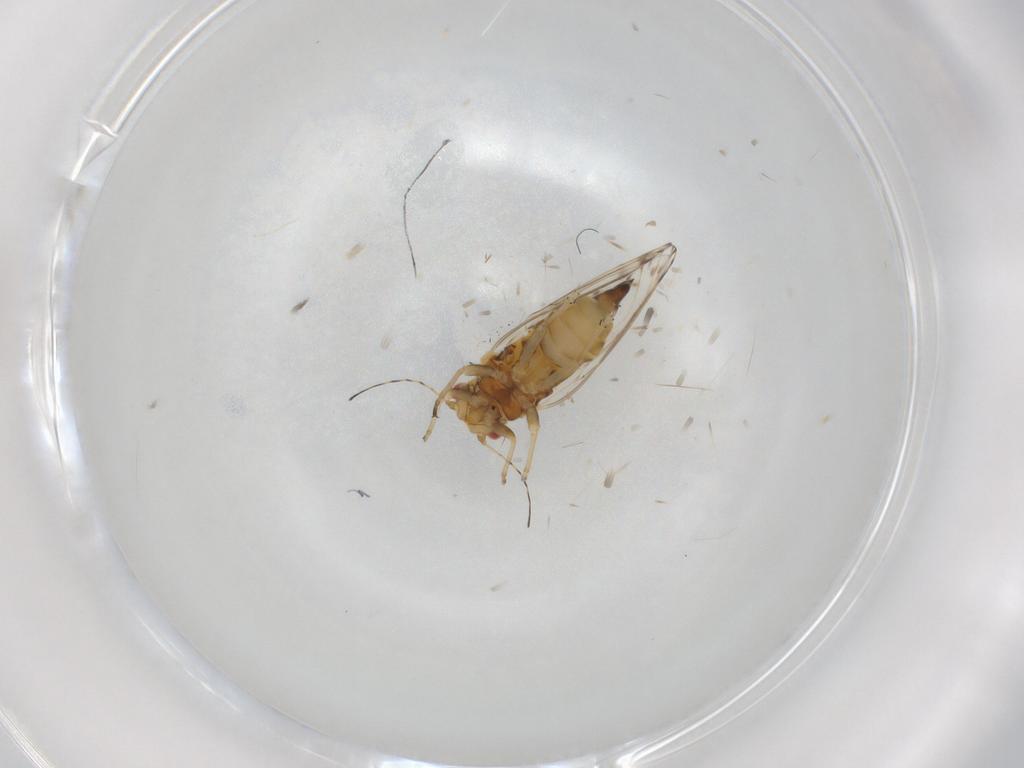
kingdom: Animalia
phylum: Arthropoda
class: Insecta
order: Hemiptera
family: Psyllidae
